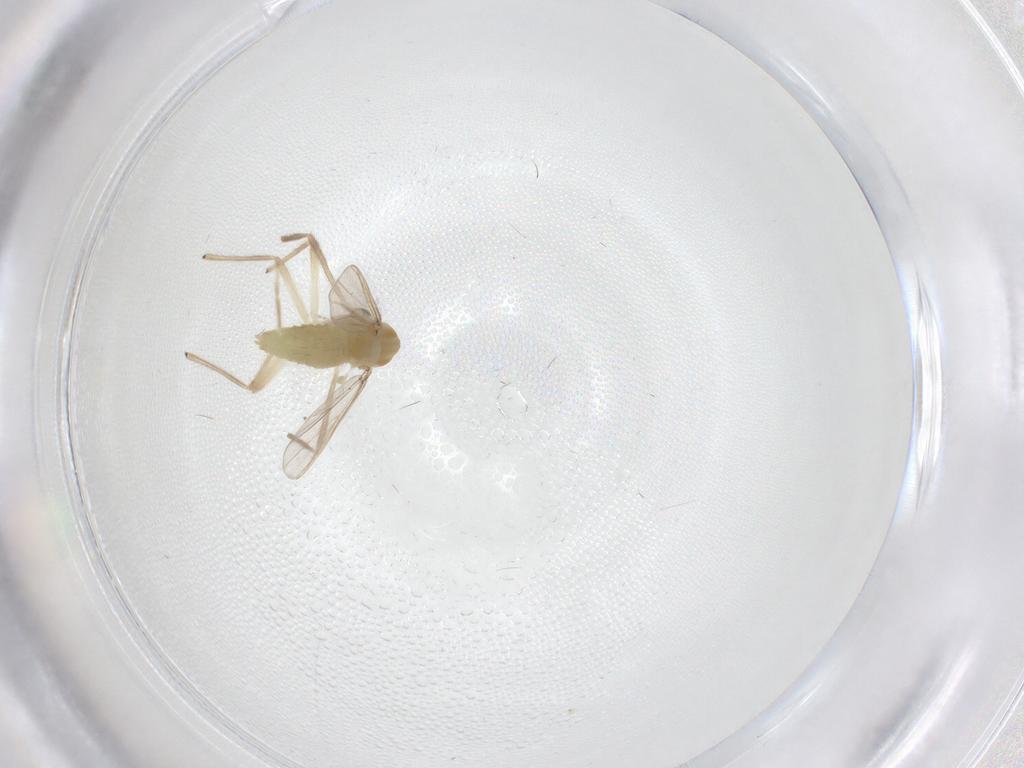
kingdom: Animalia
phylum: Arthropoda
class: Insecta
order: Diptera
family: Chironomidae
